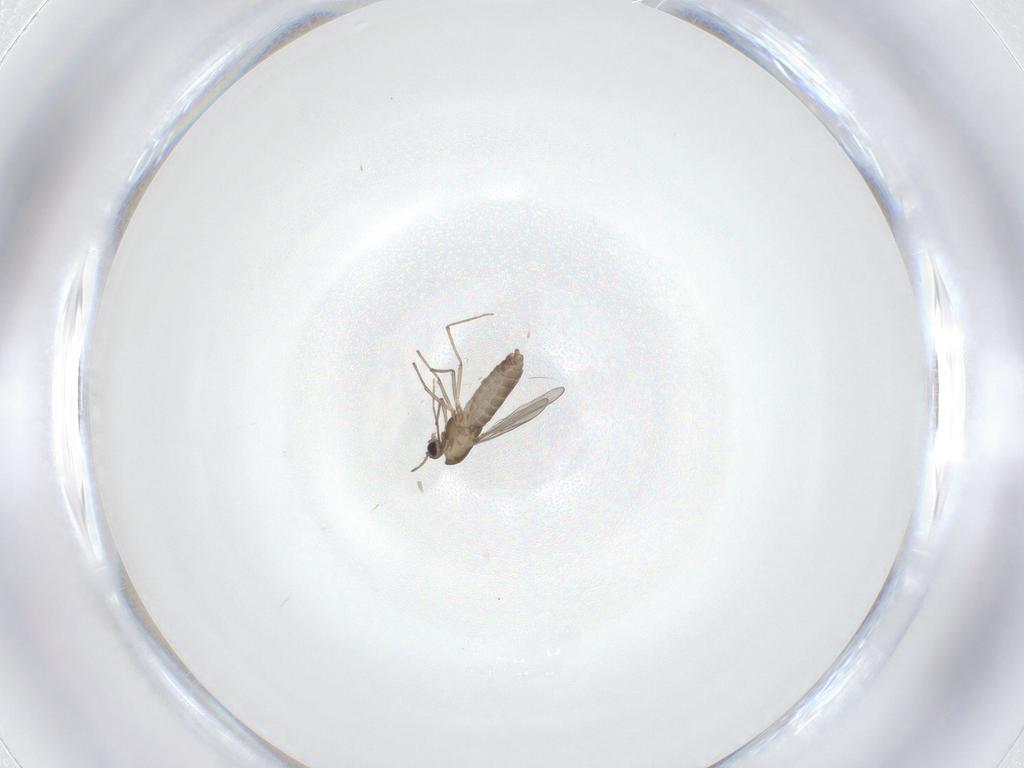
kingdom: Animalia
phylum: Arthropoda
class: Insecta
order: Diptera
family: Chironomidae
